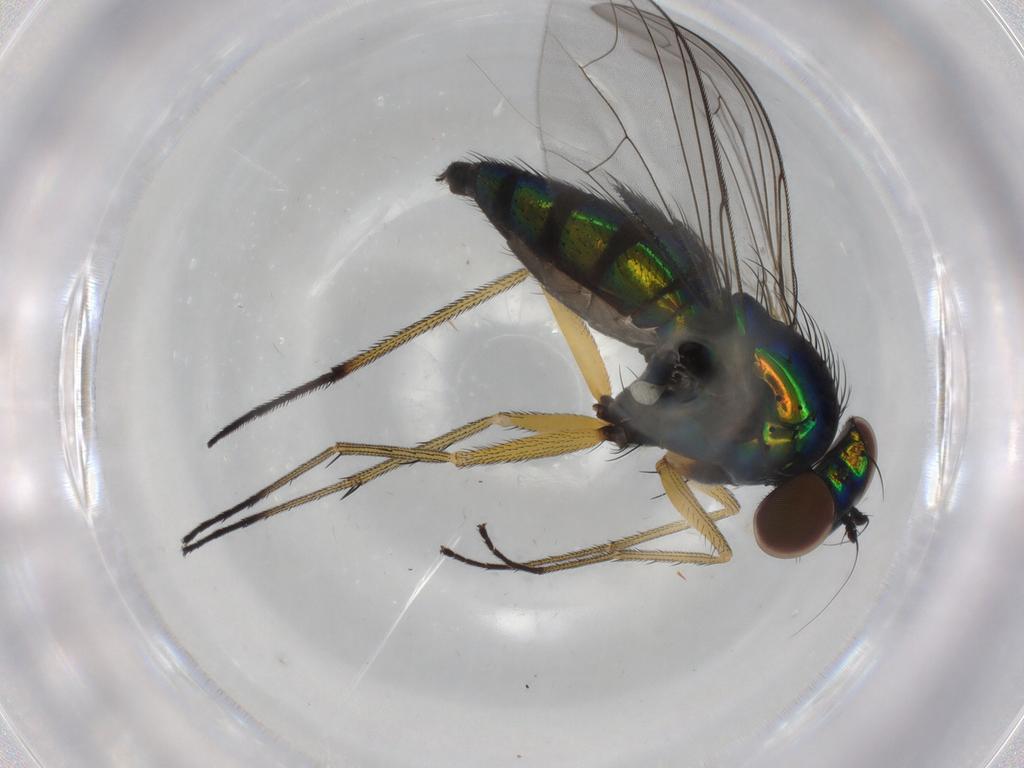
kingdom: Animalia
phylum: Arthropoda
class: Insecta
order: Diptera
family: Dolichopodidae
